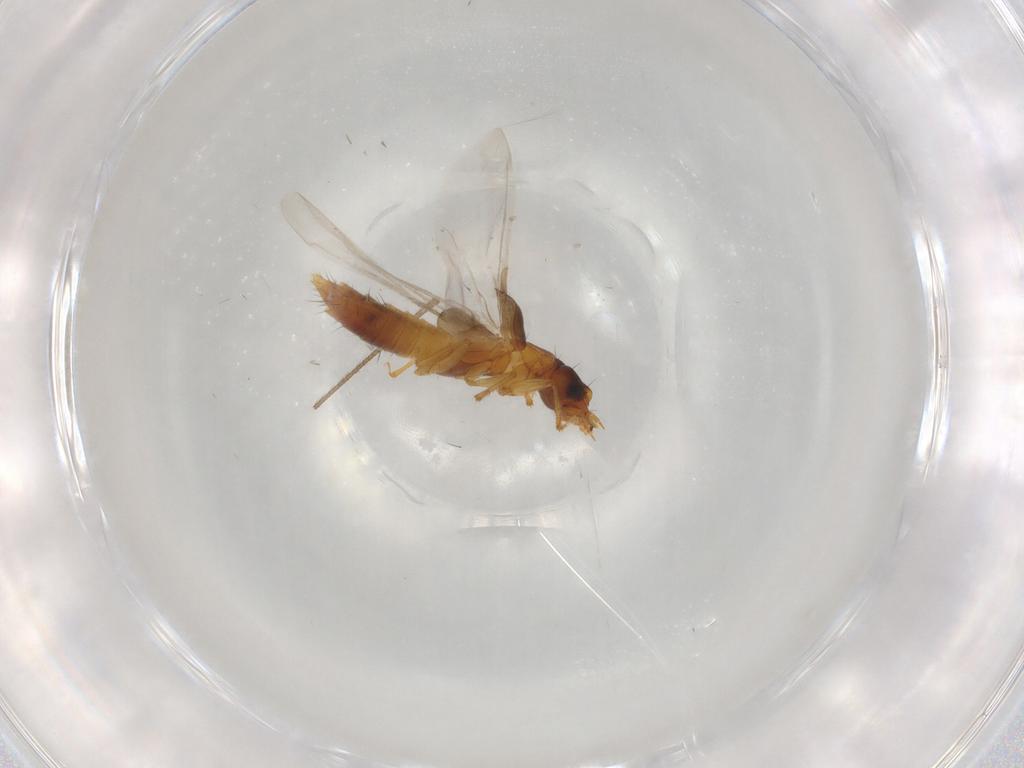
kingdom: Animalia
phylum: Arthropoda
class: Insecta
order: Coleoptera
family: Staphylinidae
